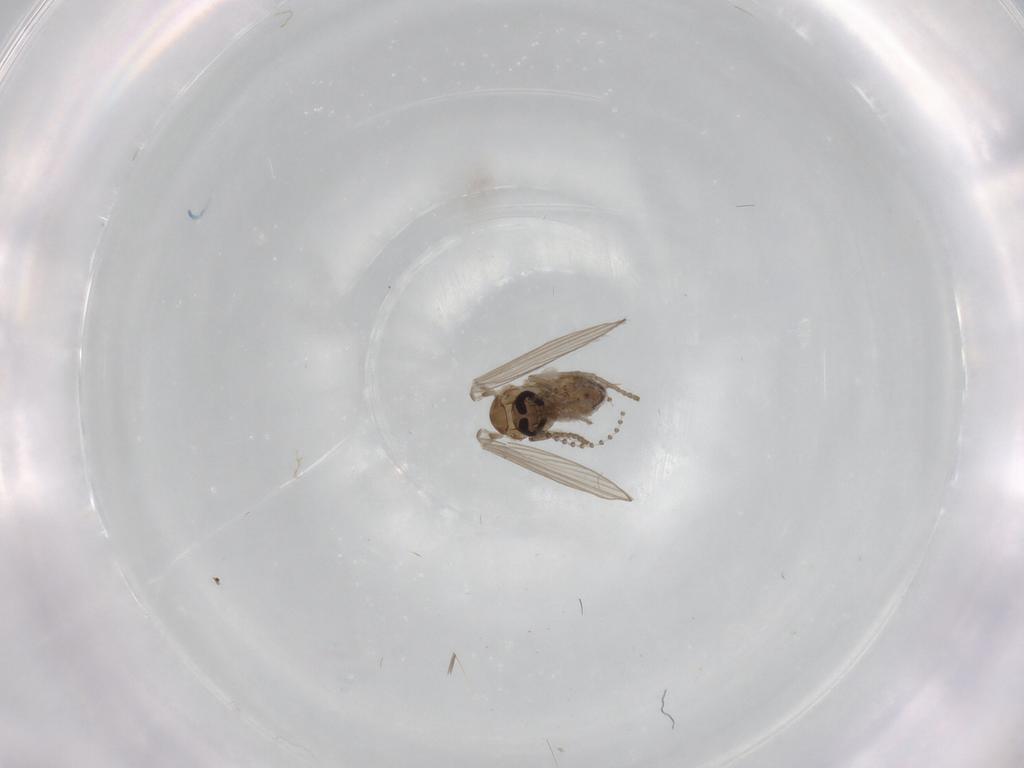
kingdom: Animalia
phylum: Arthropoda
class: Insecta
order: Diptera
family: Psychodidae
